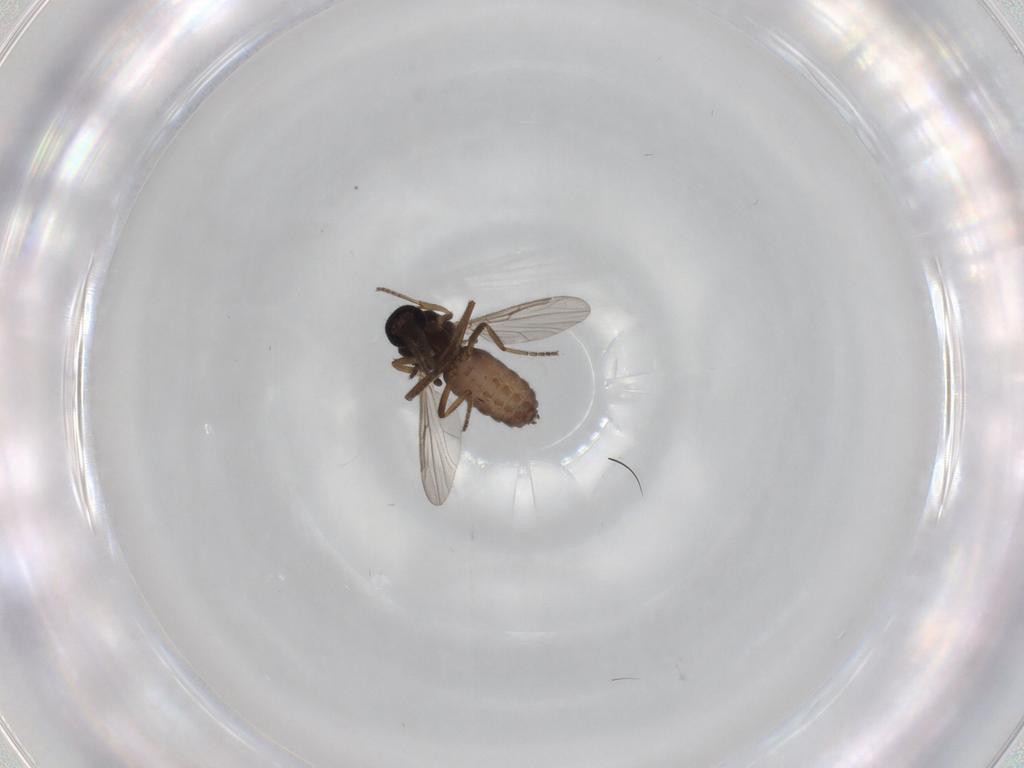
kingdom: Animalia
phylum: Arthropoda
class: Insecta
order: Diptera
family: Ceratopogonidae
